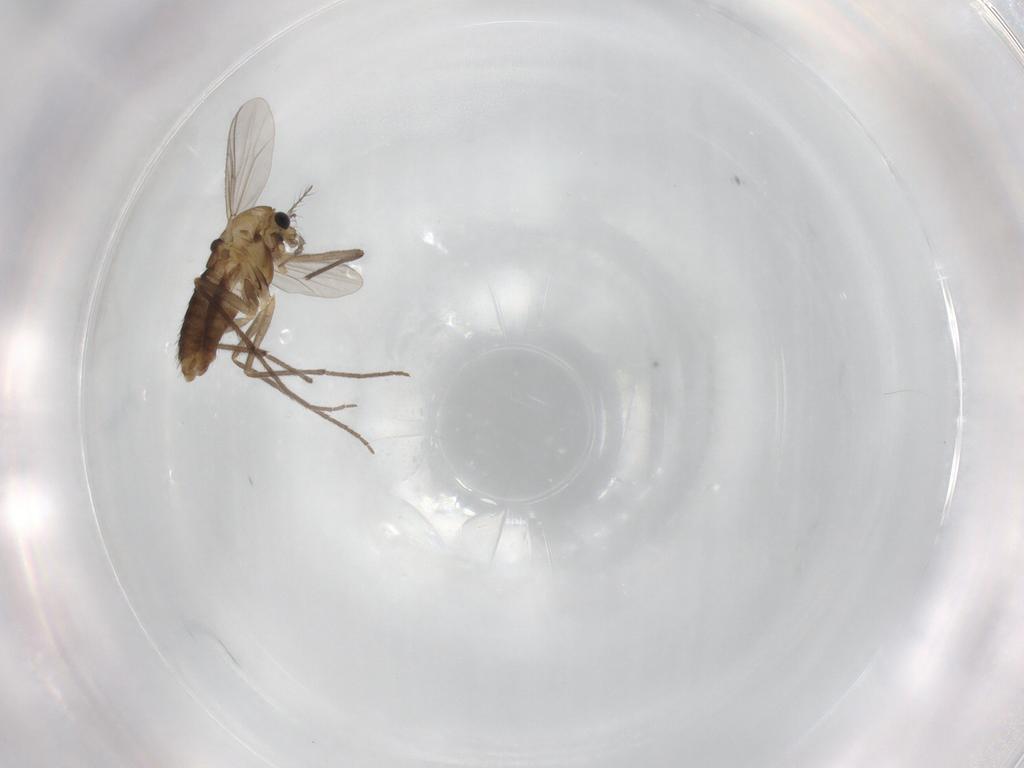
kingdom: Animalia
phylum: Arthropoda
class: Insecta
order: Diptera
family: Chironomidae
